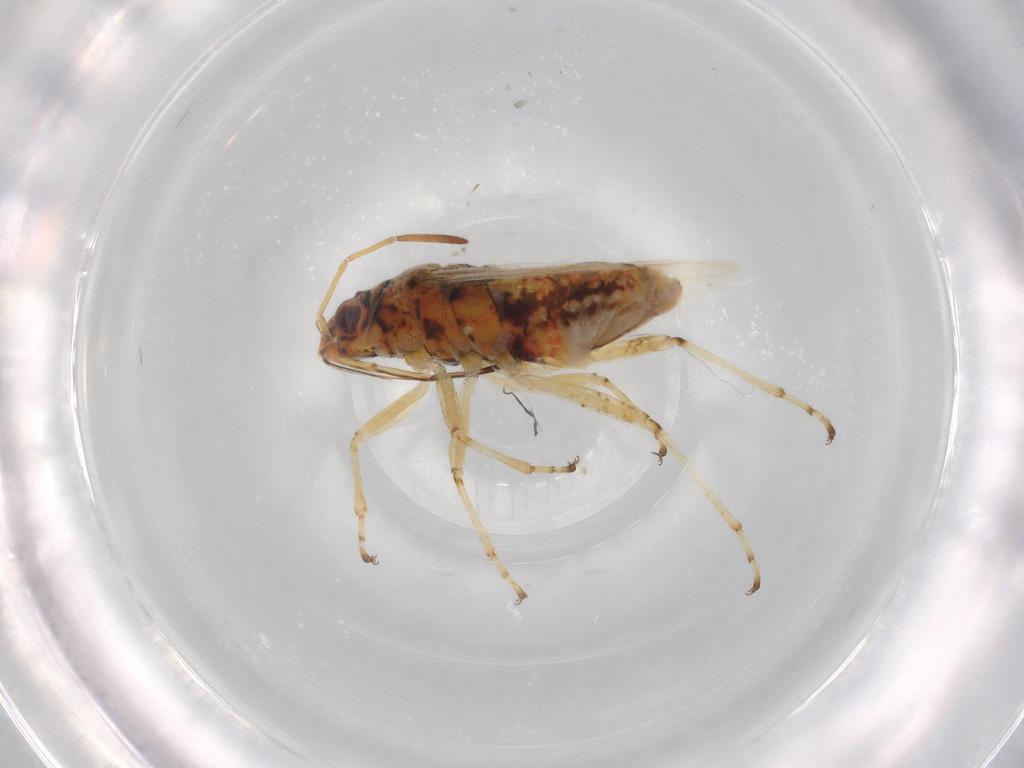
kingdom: Animalia
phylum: Arthropoda
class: Insecta
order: Hemiptera
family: Lygaeidae
